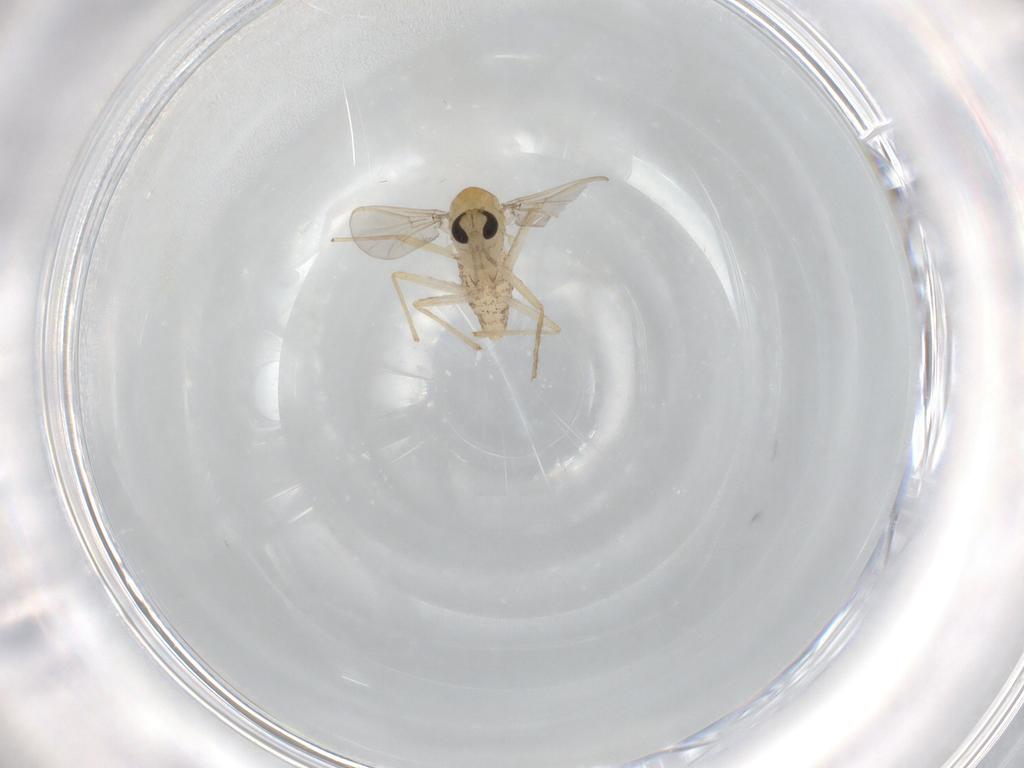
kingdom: Animalia
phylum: Arthropoda
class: Insecta
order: Diptera
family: Chironomidae
